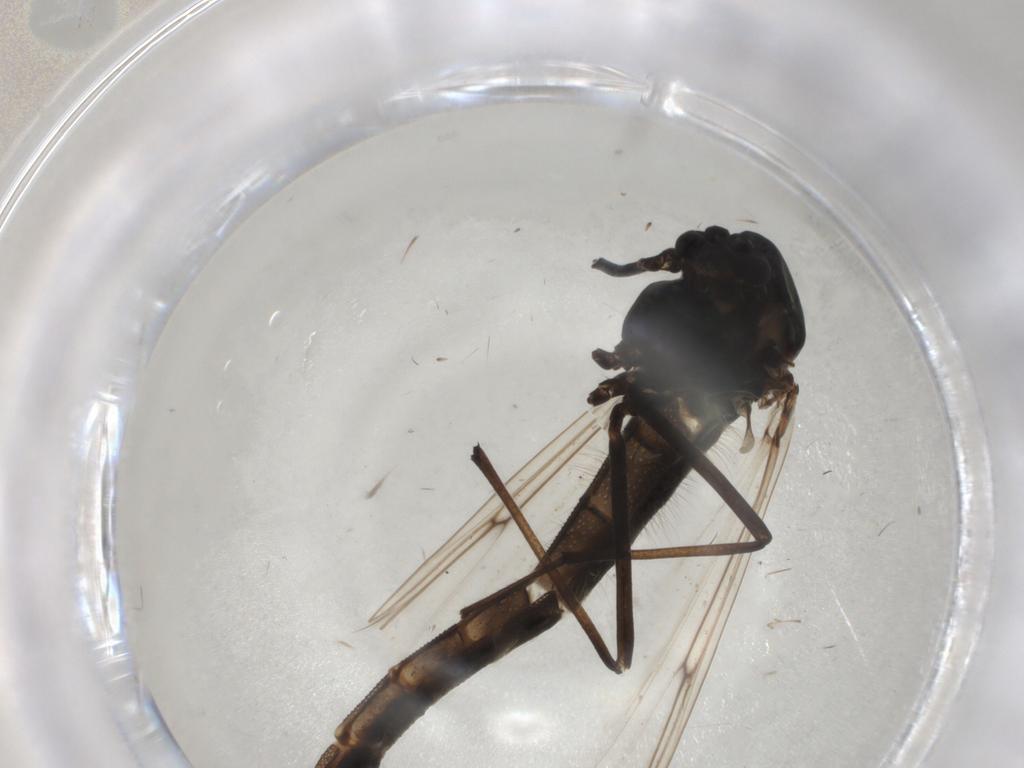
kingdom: Animalia
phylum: Arthropoda
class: Insecta
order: Diptera
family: Chironomidae
